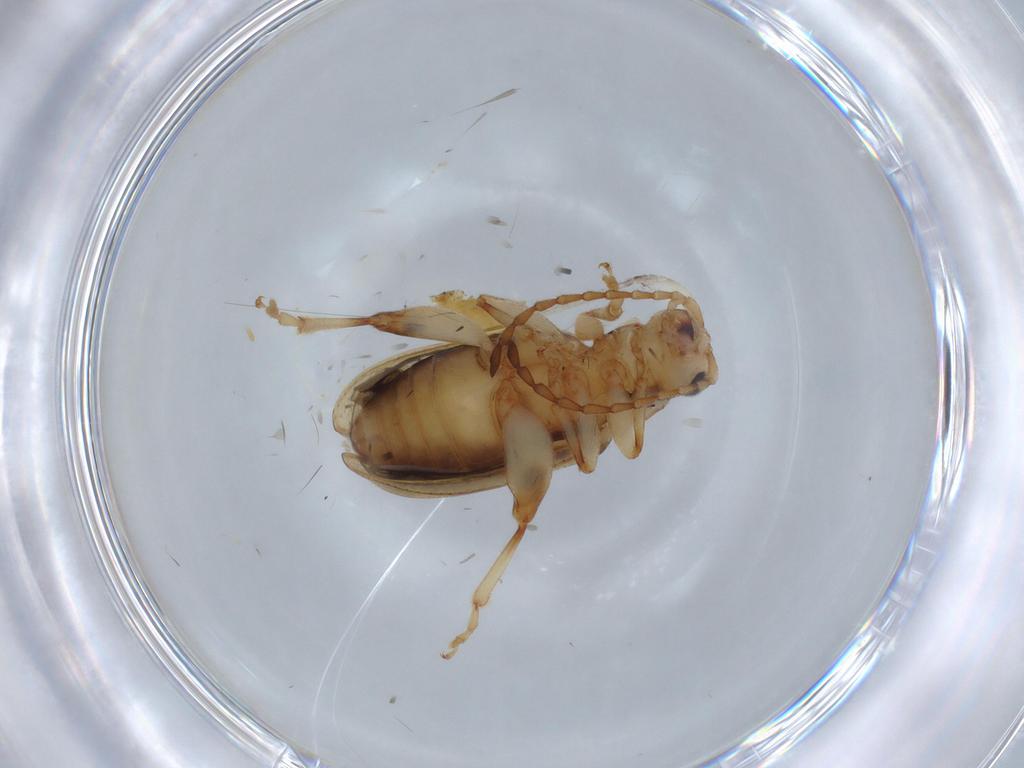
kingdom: Animalia
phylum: Arthropoda
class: Insecta
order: Coleoptera
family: Chrysomelidae
